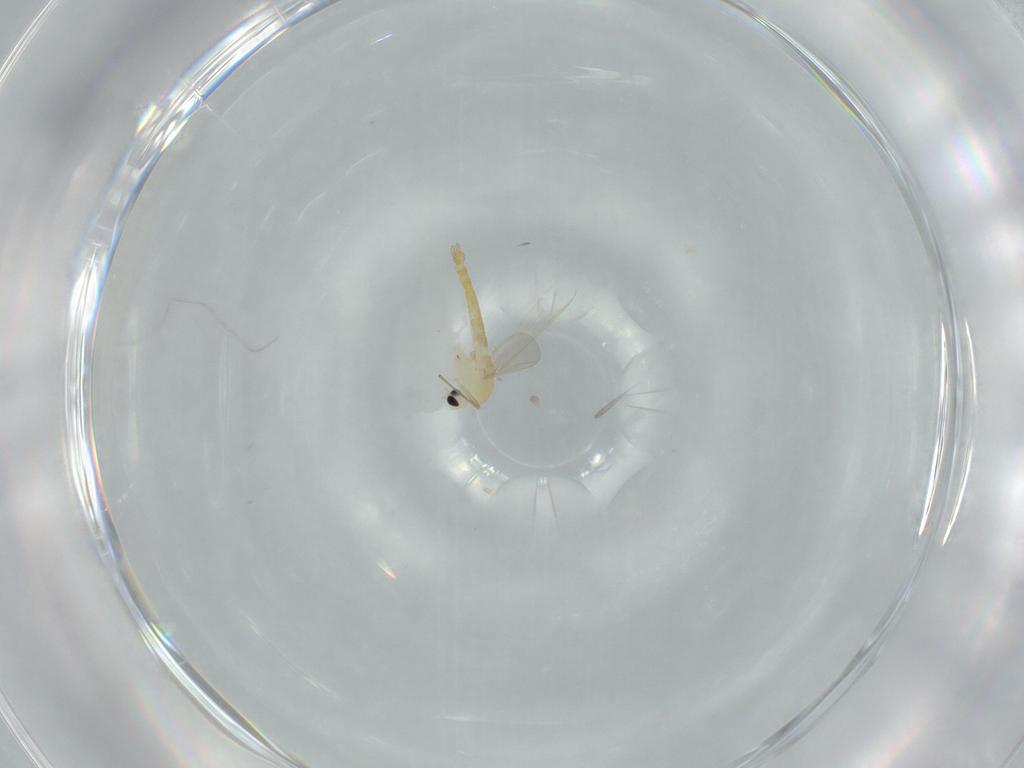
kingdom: Animalia
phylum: Arthropoda
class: Insecta
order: Diptera
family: Chironomidae
